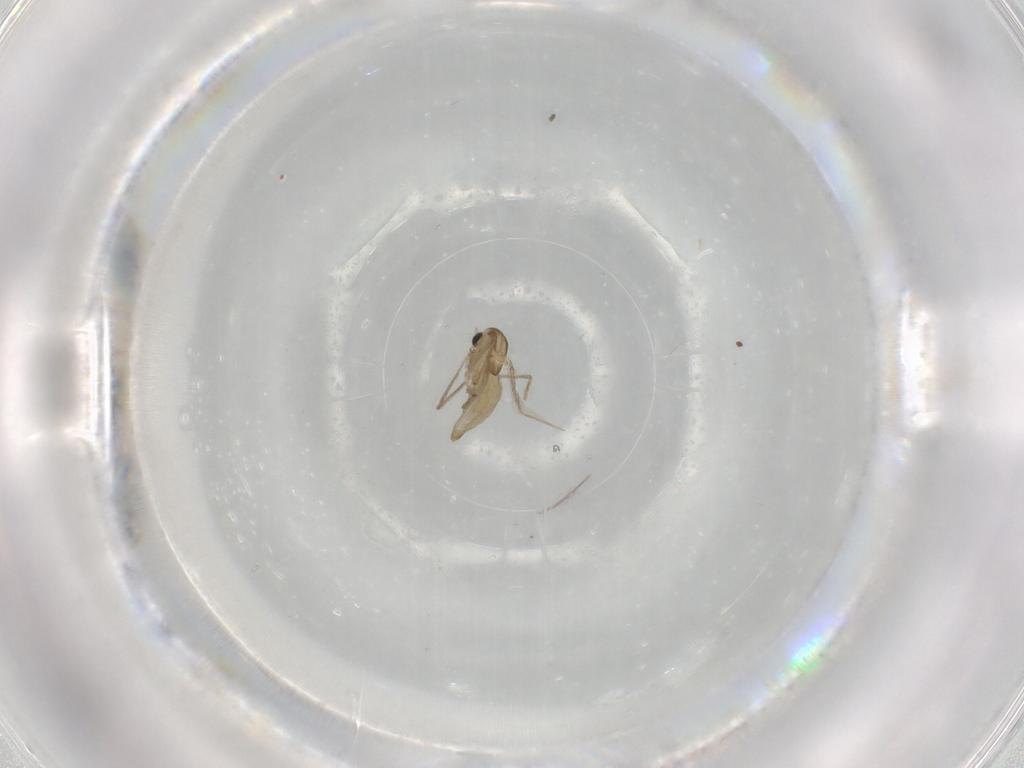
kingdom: Animalia
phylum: Arthropoda
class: Insecta
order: Diptera
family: Chironomidae
